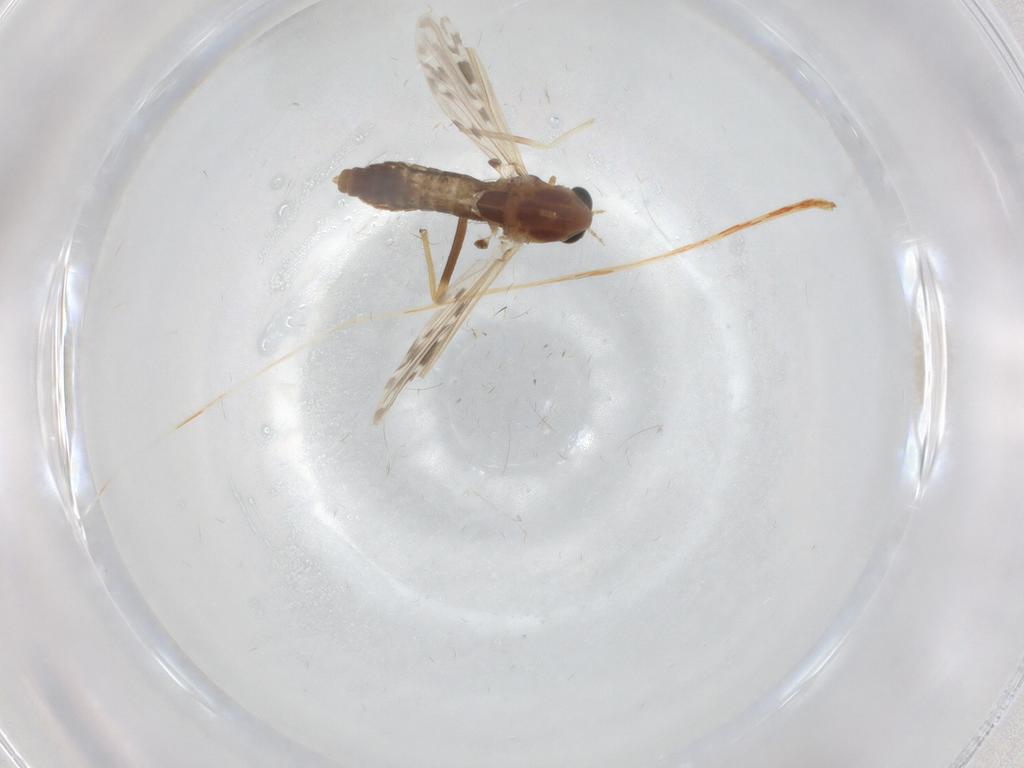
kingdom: Animalia
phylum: Arthropoda
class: Insecta
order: Diptera
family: Chironomidae
